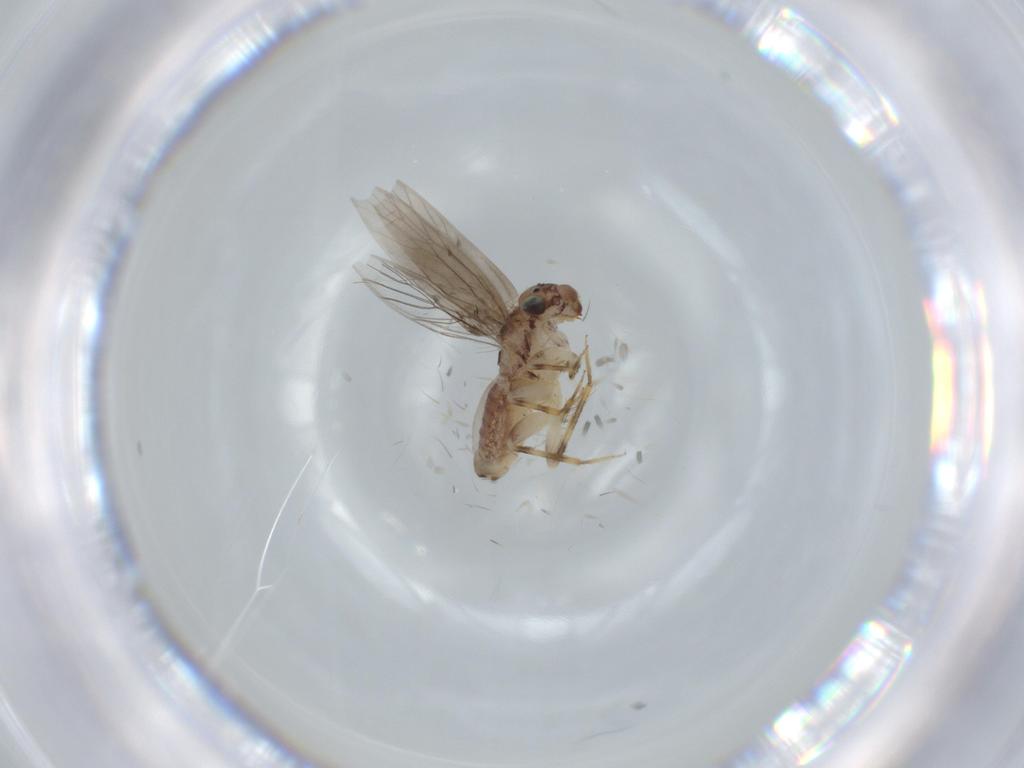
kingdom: Animalia
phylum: Arthropoda
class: Insecta
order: Psocodea
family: Lepidopsocidae
